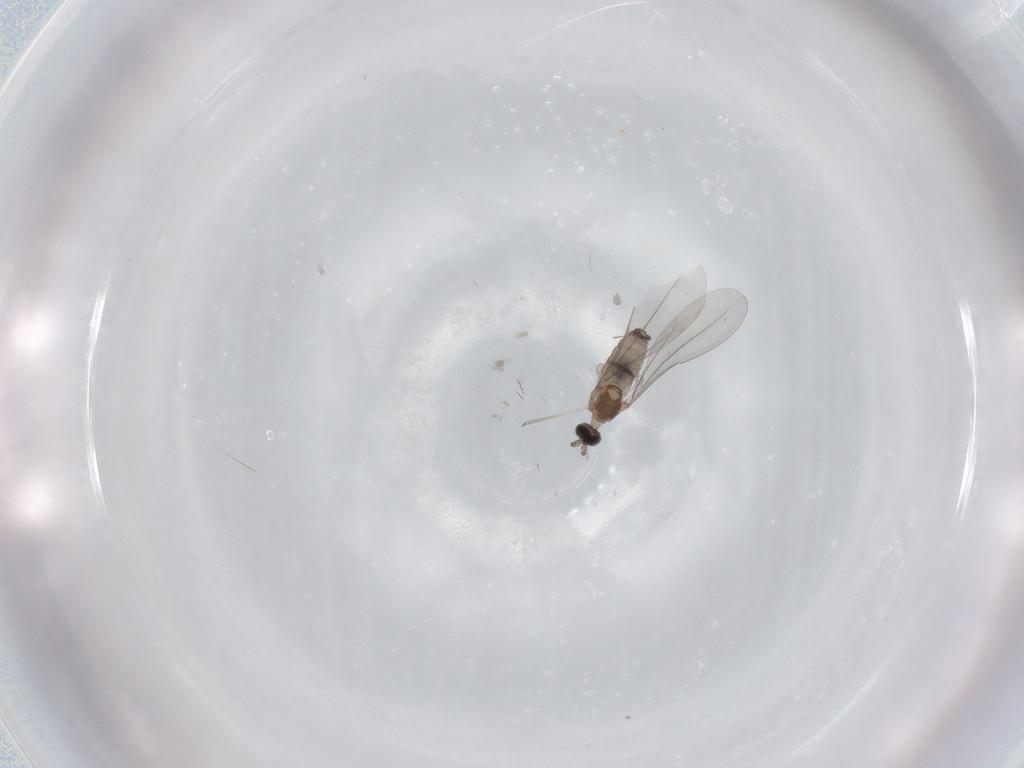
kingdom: Animalia
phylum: Arthropoda
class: Insecta
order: Diptera
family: Cecidomyiidae
